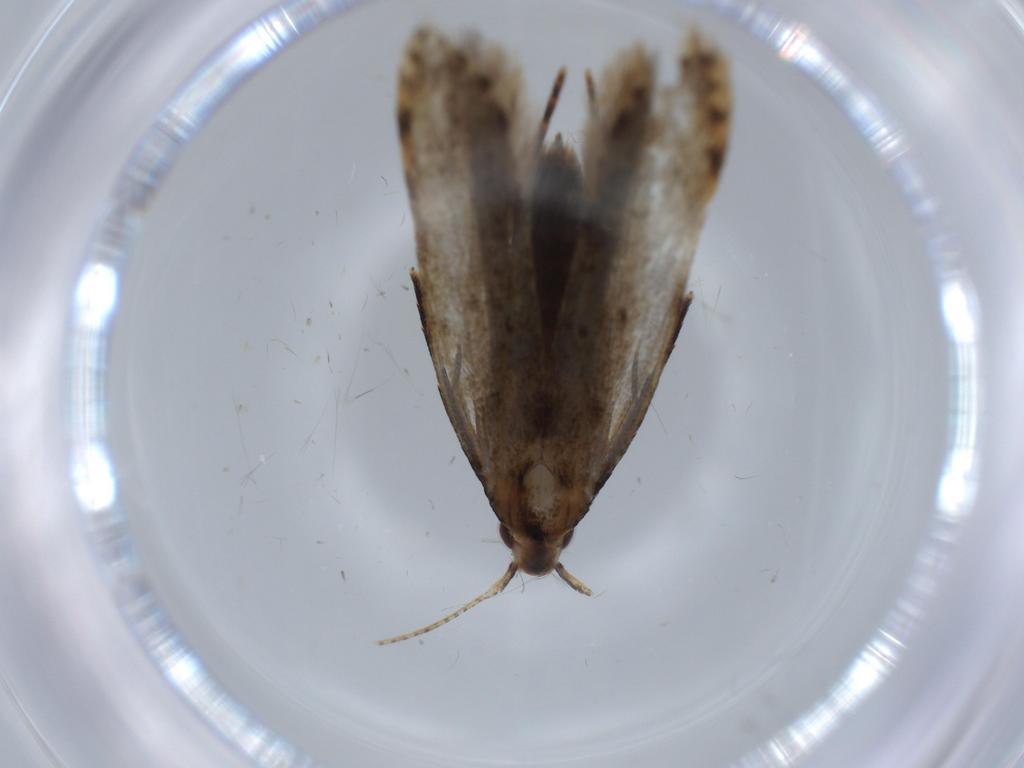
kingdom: Animalia
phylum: Arthropoda
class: Insecta
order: Lepidoptera
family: Gelechiidae
